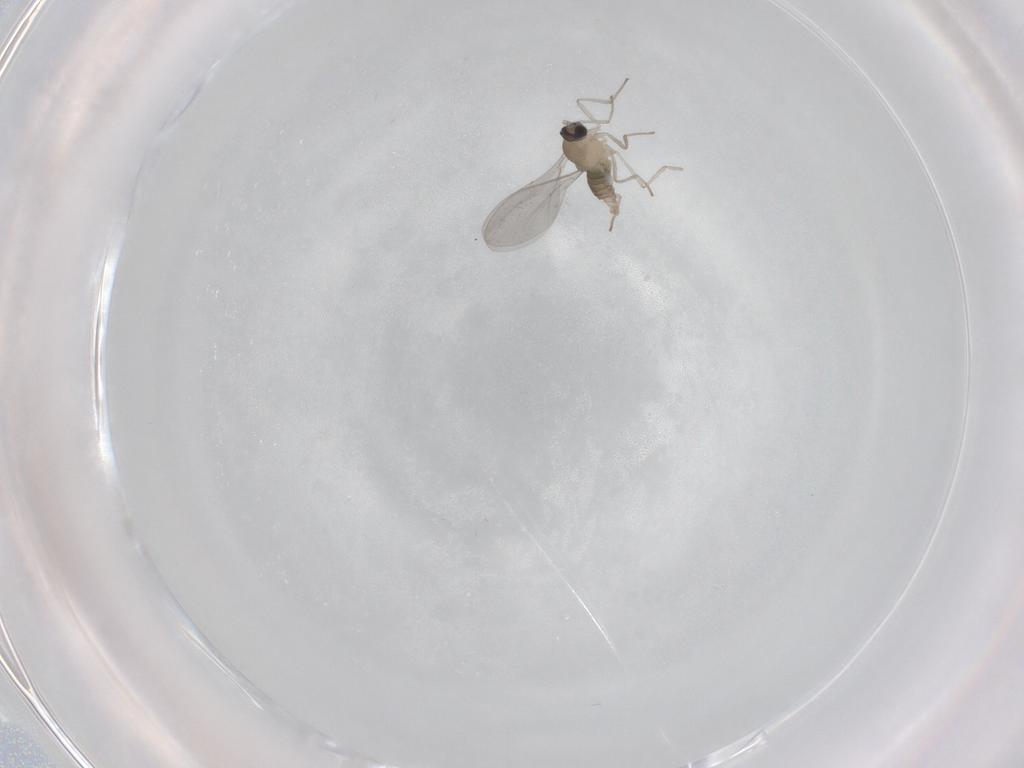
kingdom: Animalia
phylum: Arthropoda
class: Insecta
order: Diptera
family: Cecidomyiidae
